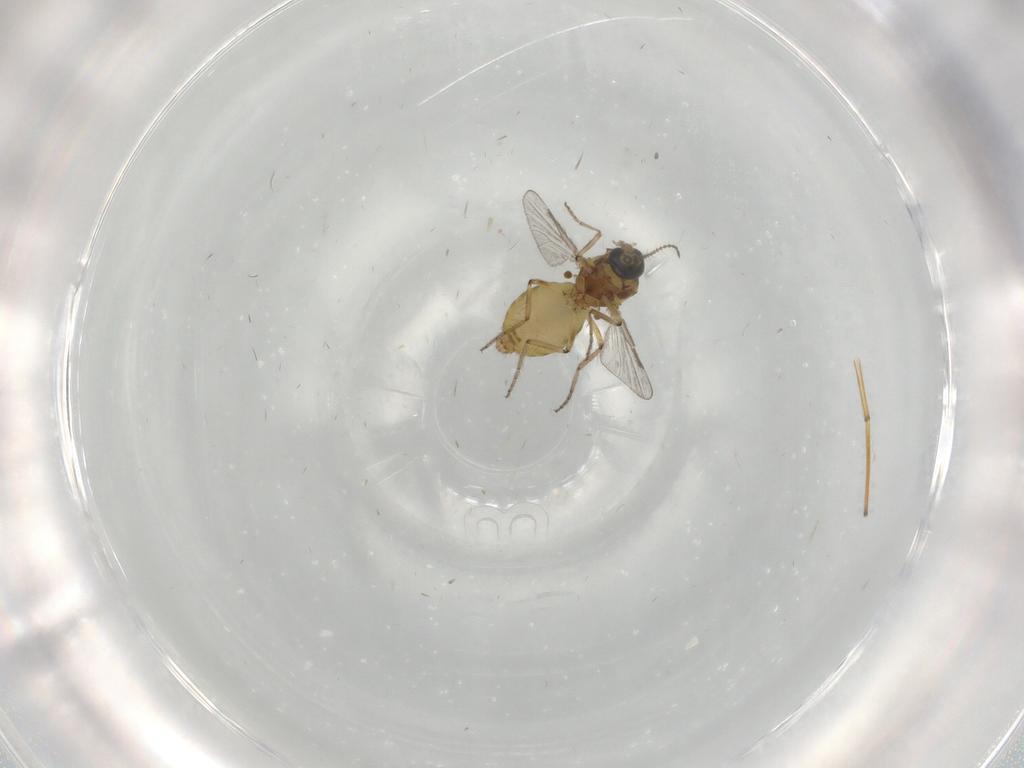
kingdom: Animalia
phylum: Arthropoda
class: Insecta
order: Diptera
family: Ceratopogonidae
